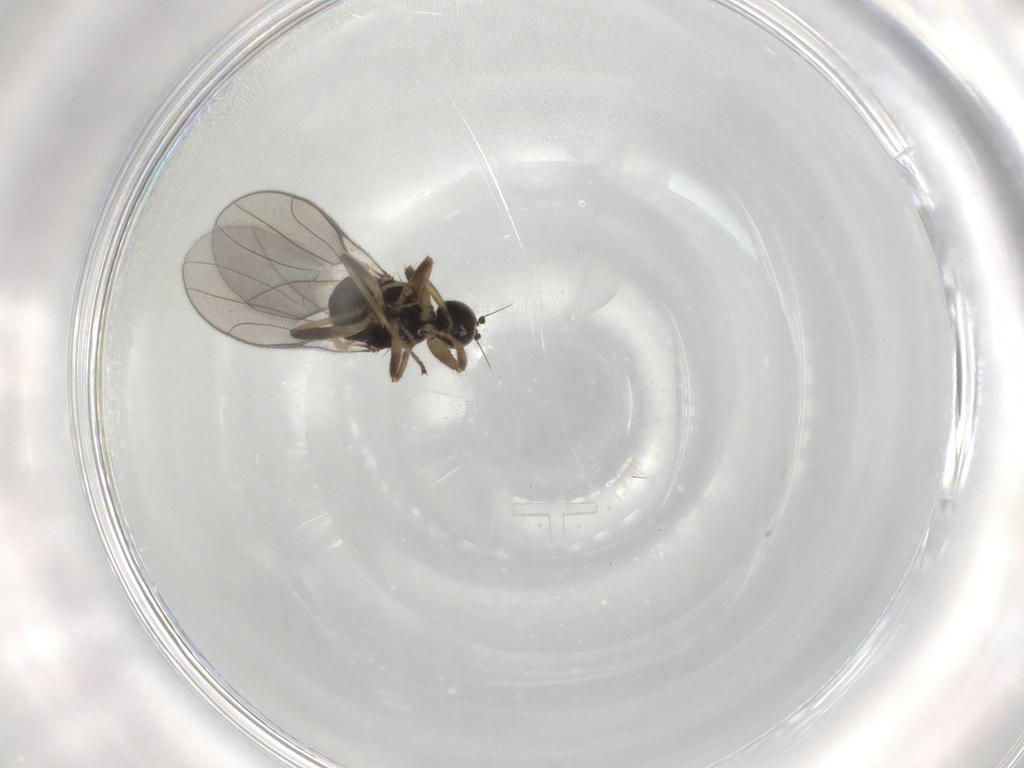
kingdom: Animalia
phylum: Arthropoda
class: Insecta
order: Diptera
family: Hybotidae
